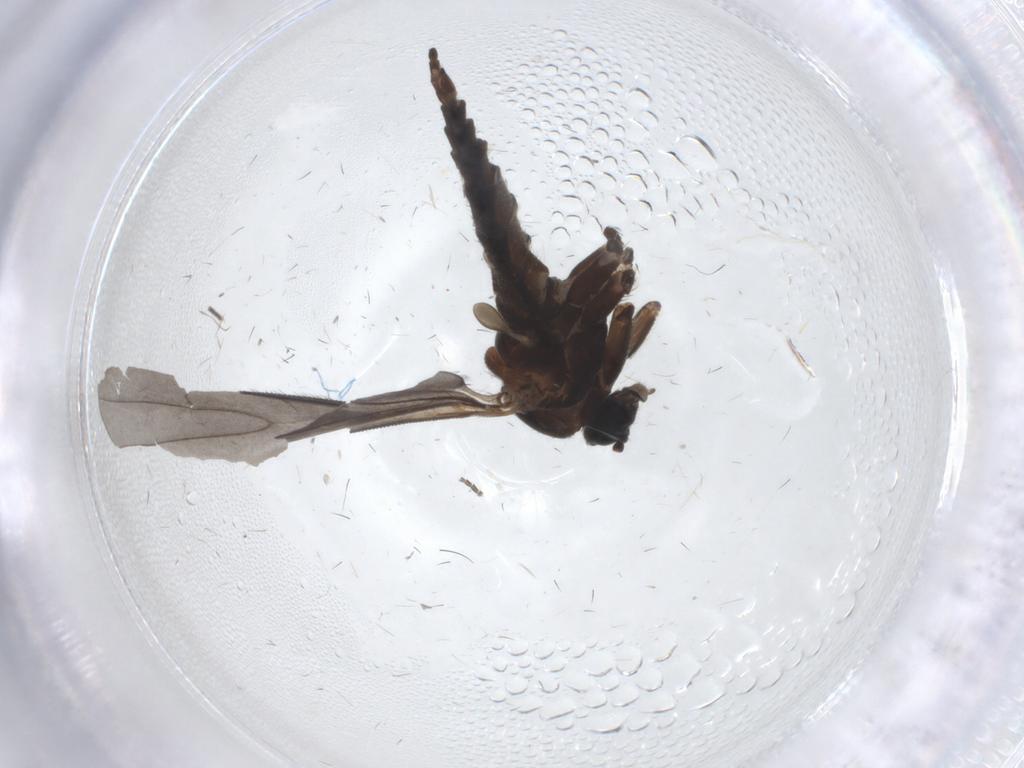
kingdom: Animalia
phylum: Arthropoda
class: Insecta
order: Diptera
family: Sciaridae
